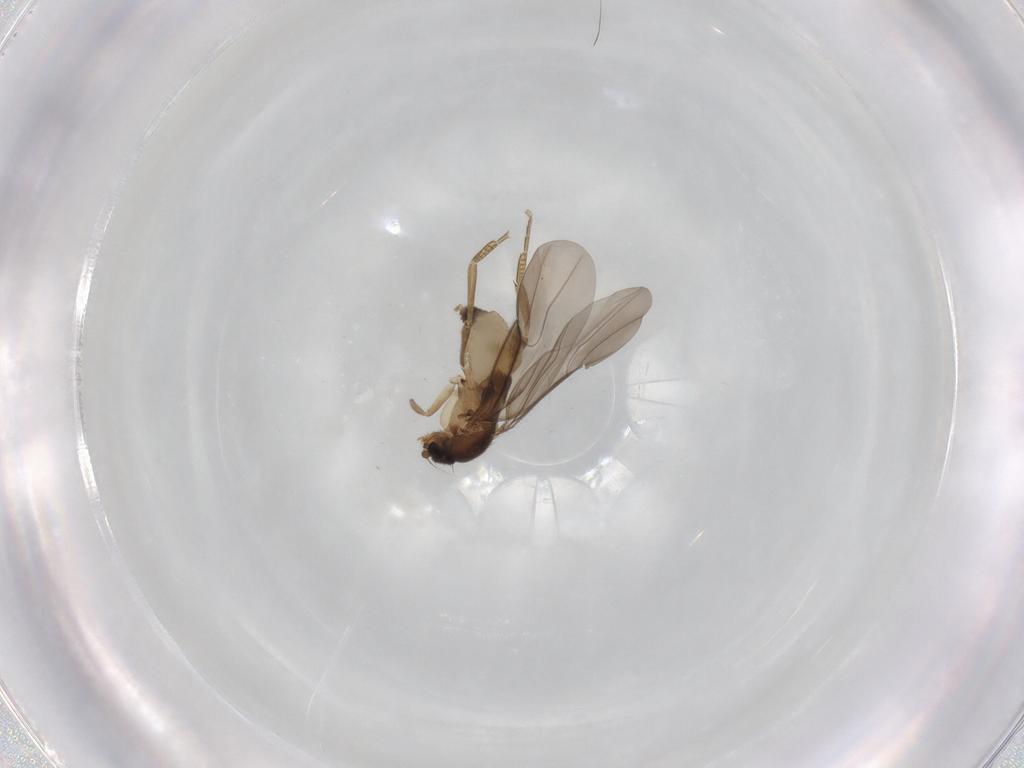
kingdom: Animalia
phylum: Arthropoda
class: Insecta
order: Diptera
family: Phoridae
